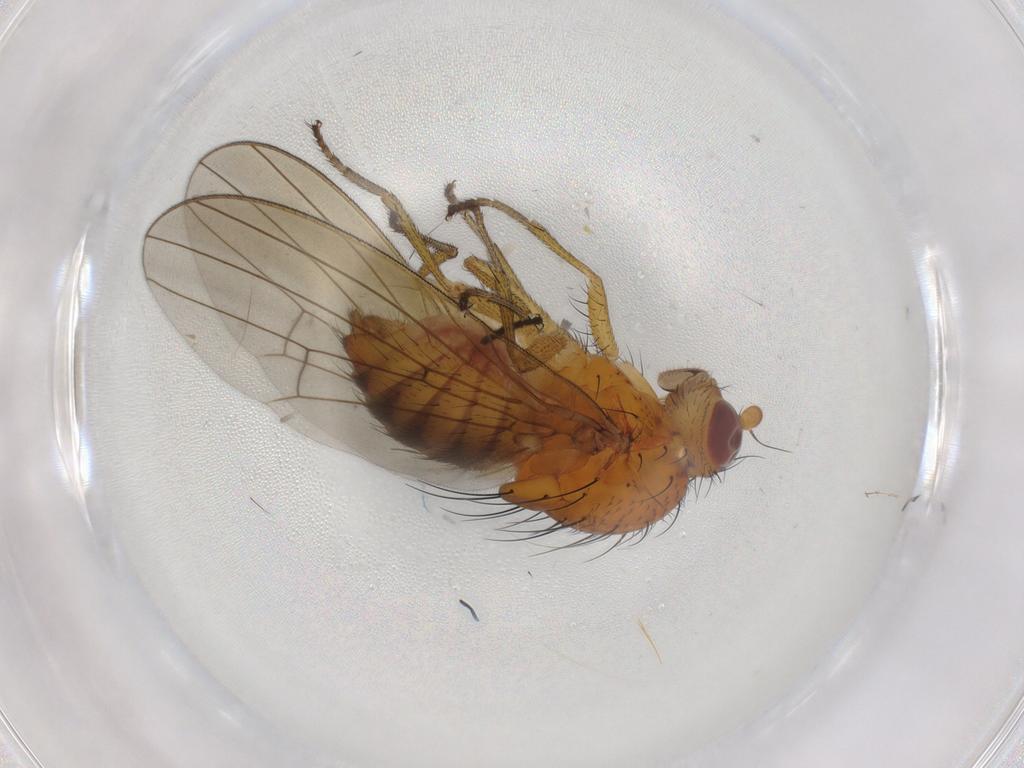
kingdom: Animalia
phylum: Arthropoda
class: Insecta
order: Diptera
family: Empididae
